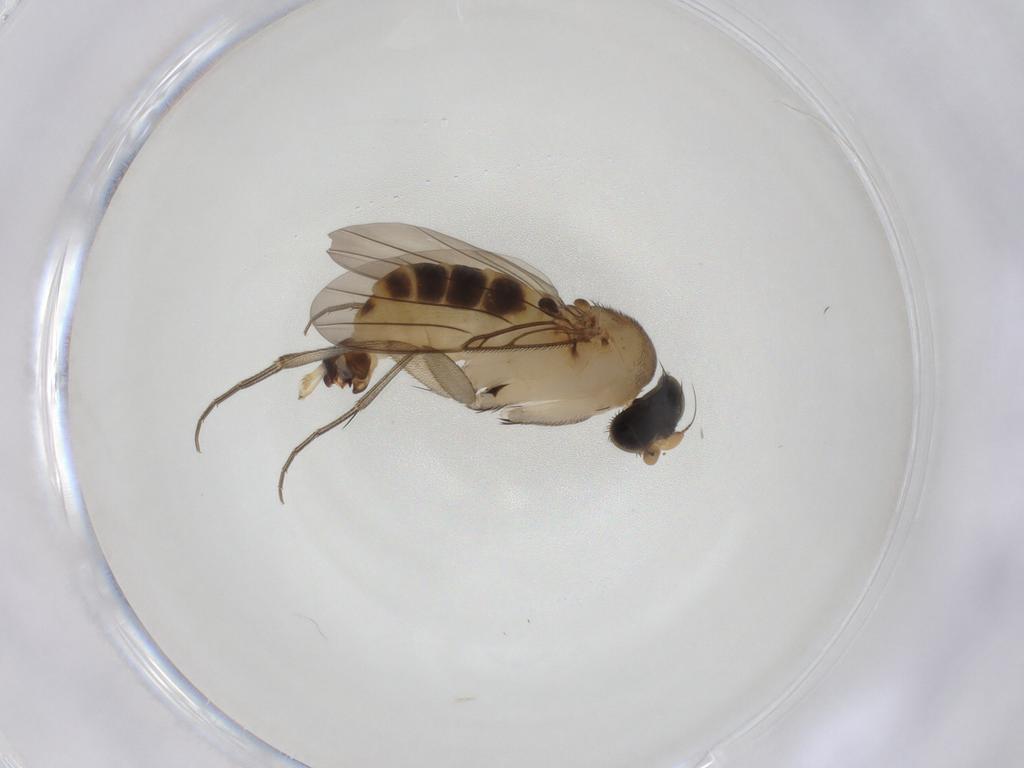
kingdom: Animalia
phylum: Arthropoda
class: Insecta
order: Diptera
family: Phoridae
